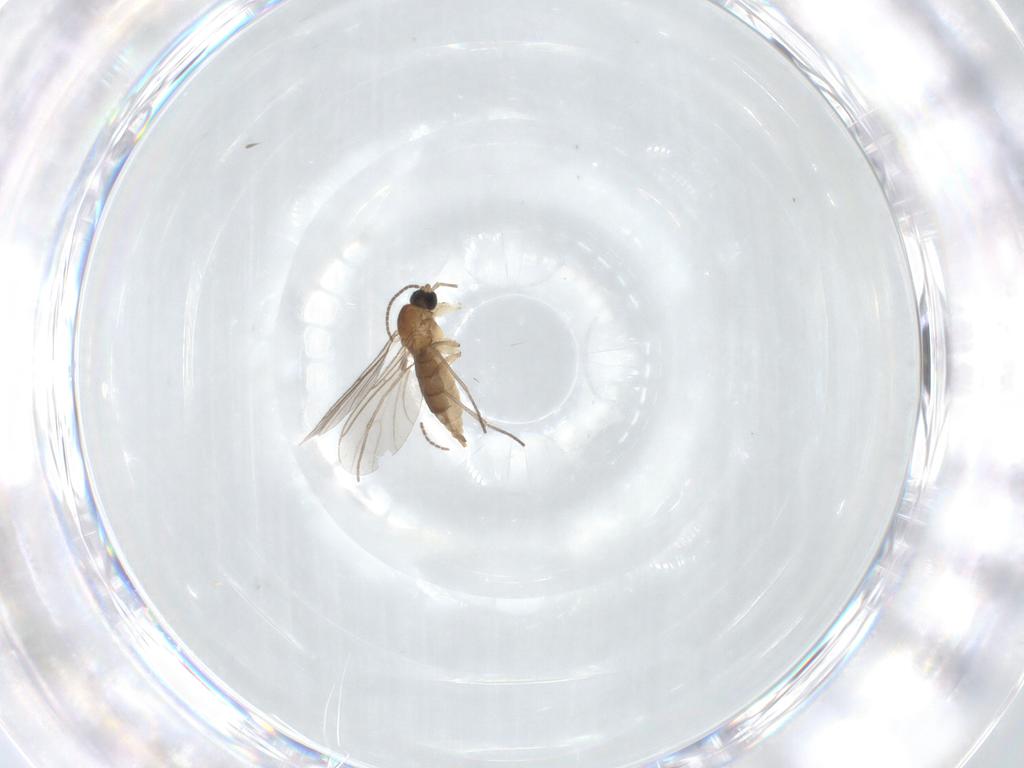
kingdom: Animalia
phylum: Arthropoda
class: Insecta
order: Diptera
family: Sciaridae
